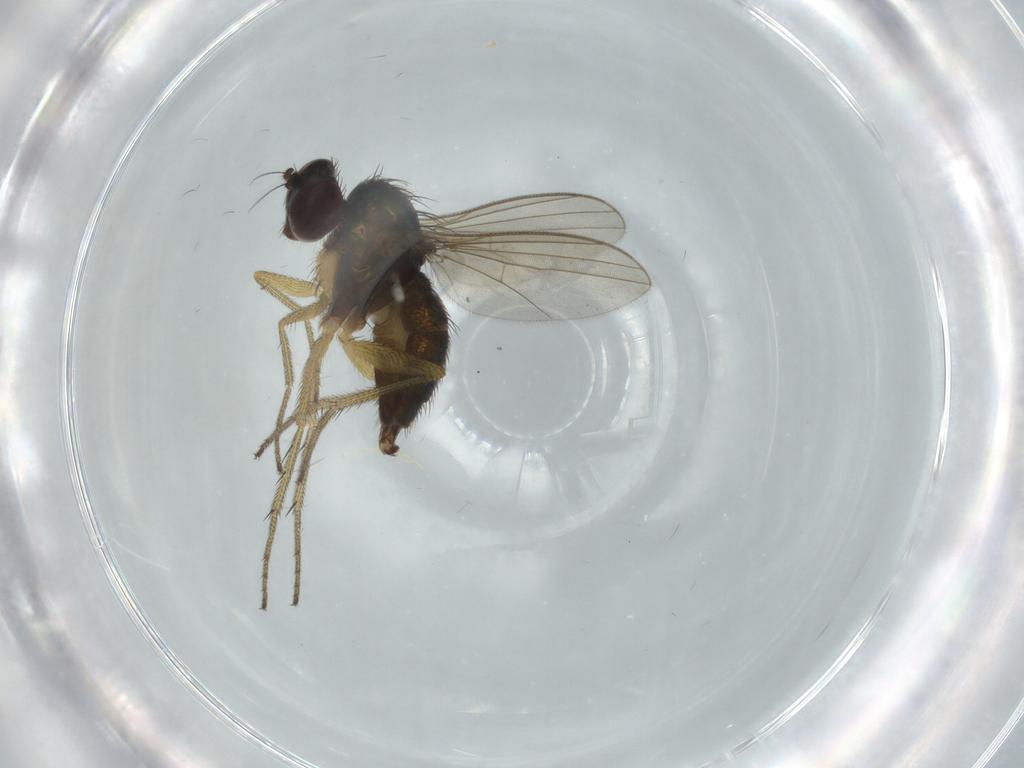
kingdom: Animalia
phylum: Arthropoda
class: Insecta
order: Diptera
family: Dolichopodidae
